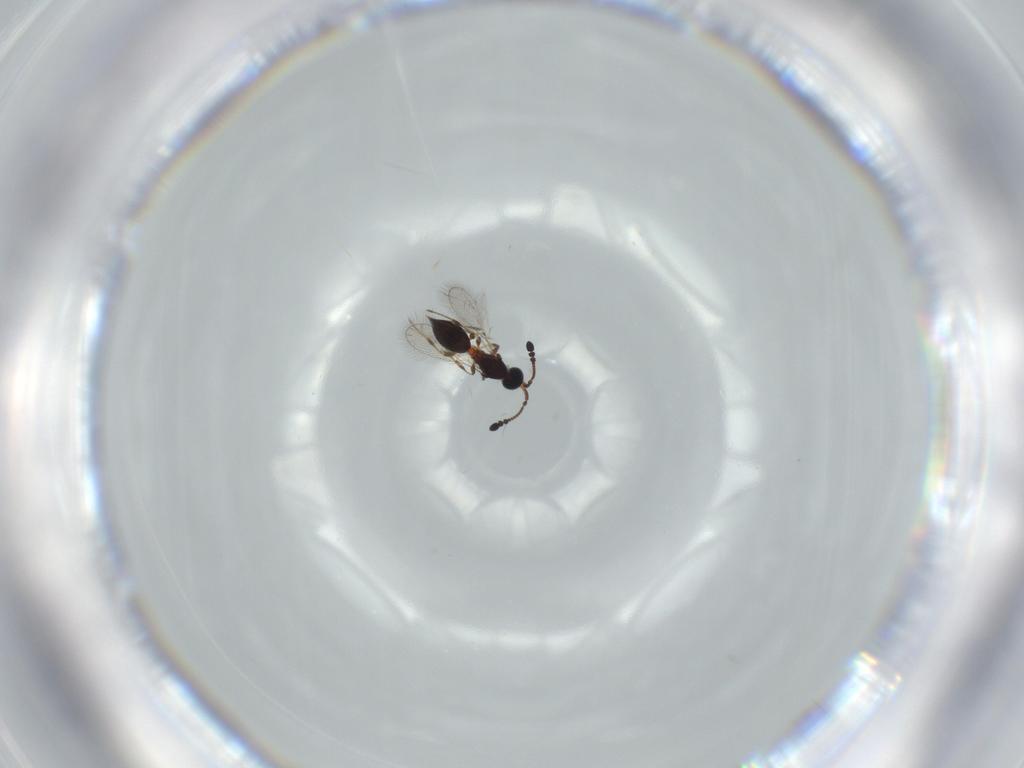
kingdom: Animalia
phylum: Arthropoda
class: Insecta
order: Hymenoptera
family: Diapriidae
